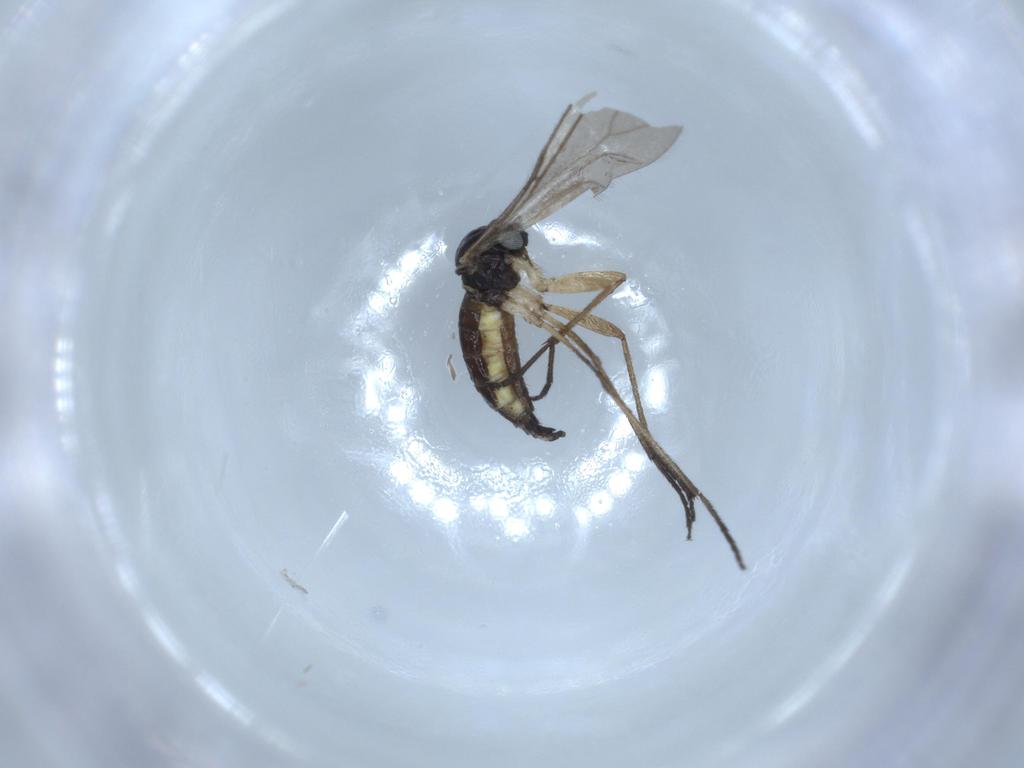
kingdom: Animalia
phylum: Arthropoda
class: Insecta
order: Diptera
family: Sciaridae
